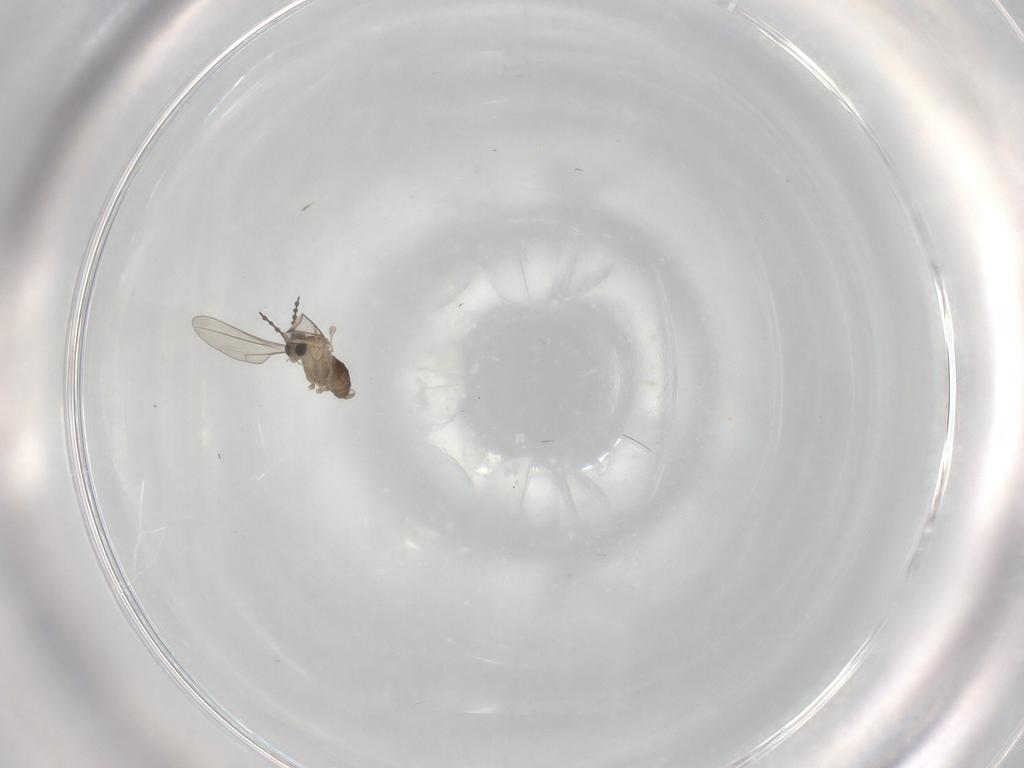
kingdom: Animalia
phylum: Arthropoda
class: Insecta
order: Diptera
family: Cecidomyiidae
